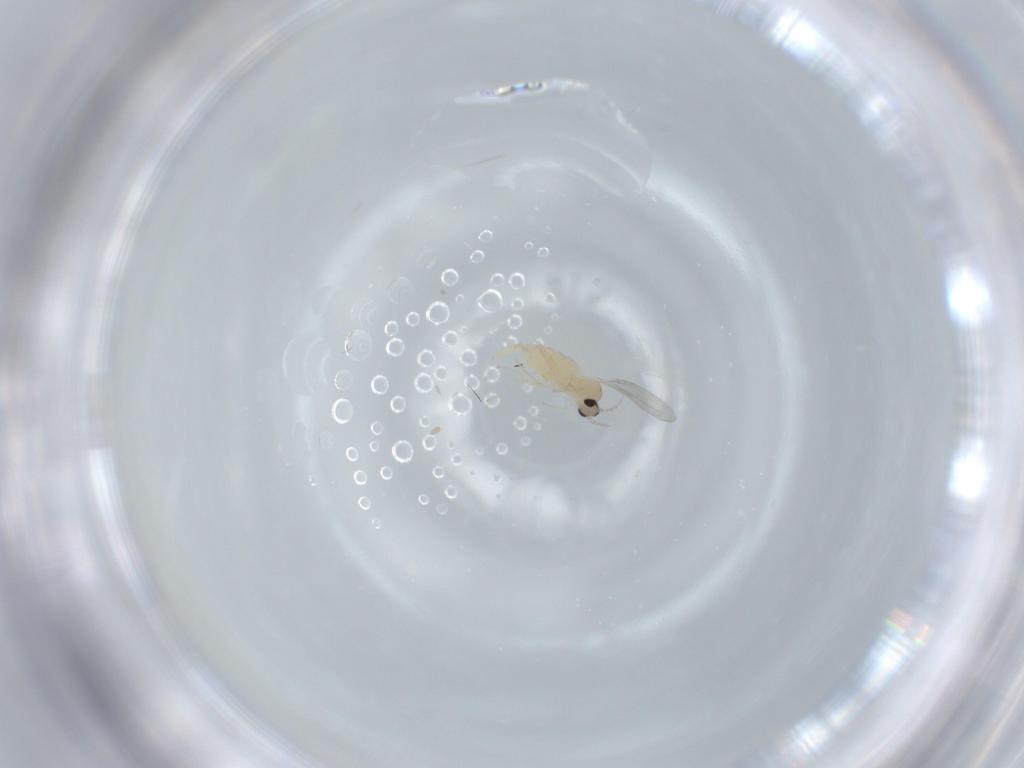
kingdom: Animalia
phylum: Arthropoda
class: Insecta
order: Diptera
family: Cecidomyiidae
